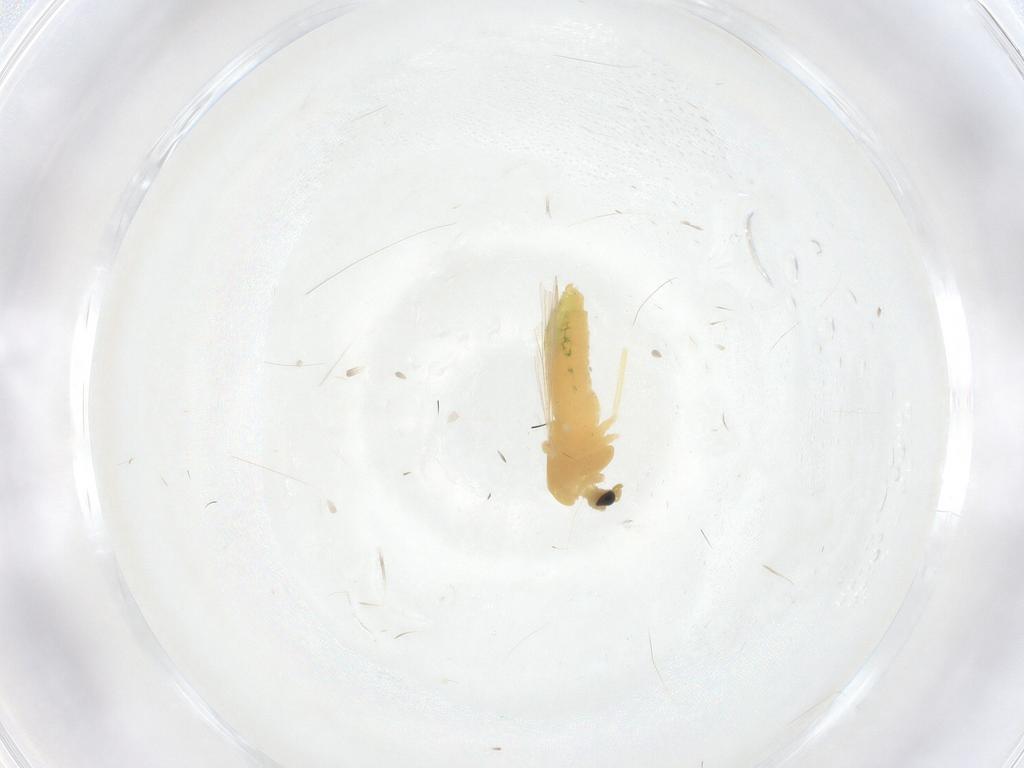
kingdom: Animalia
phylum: Arthropoda
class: Insecta
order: Diptera
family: Chironomidae
